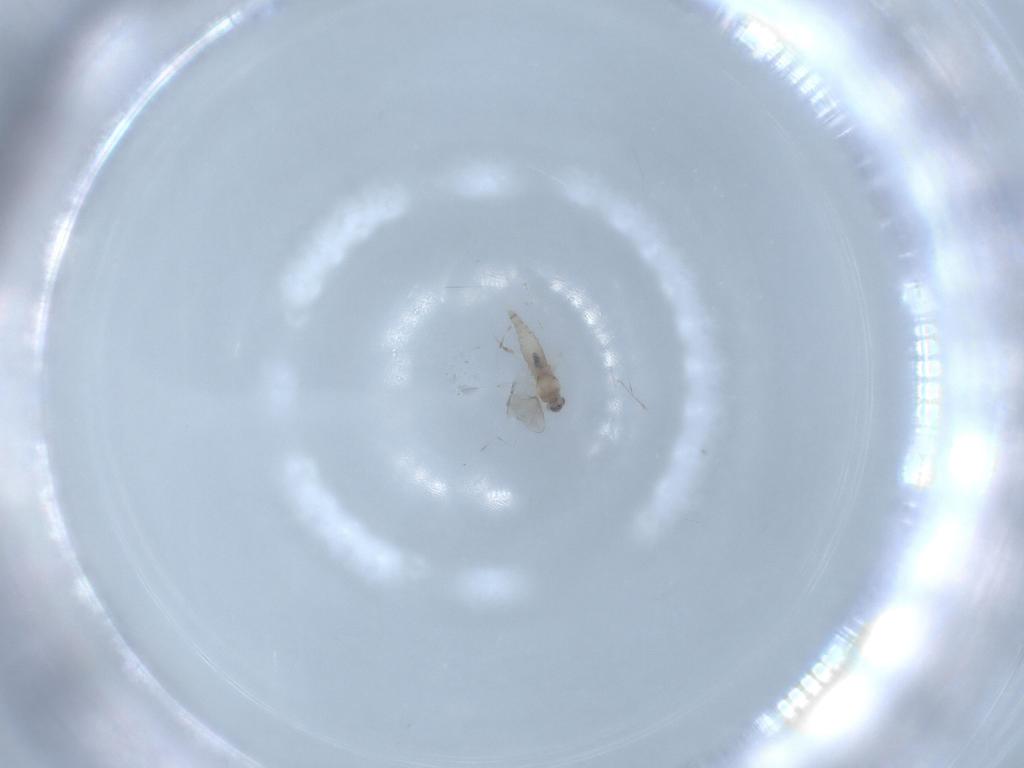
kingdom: Animalia
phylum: Arthropoda
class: Insecta
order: Diptera
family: Cecidomyiidae
